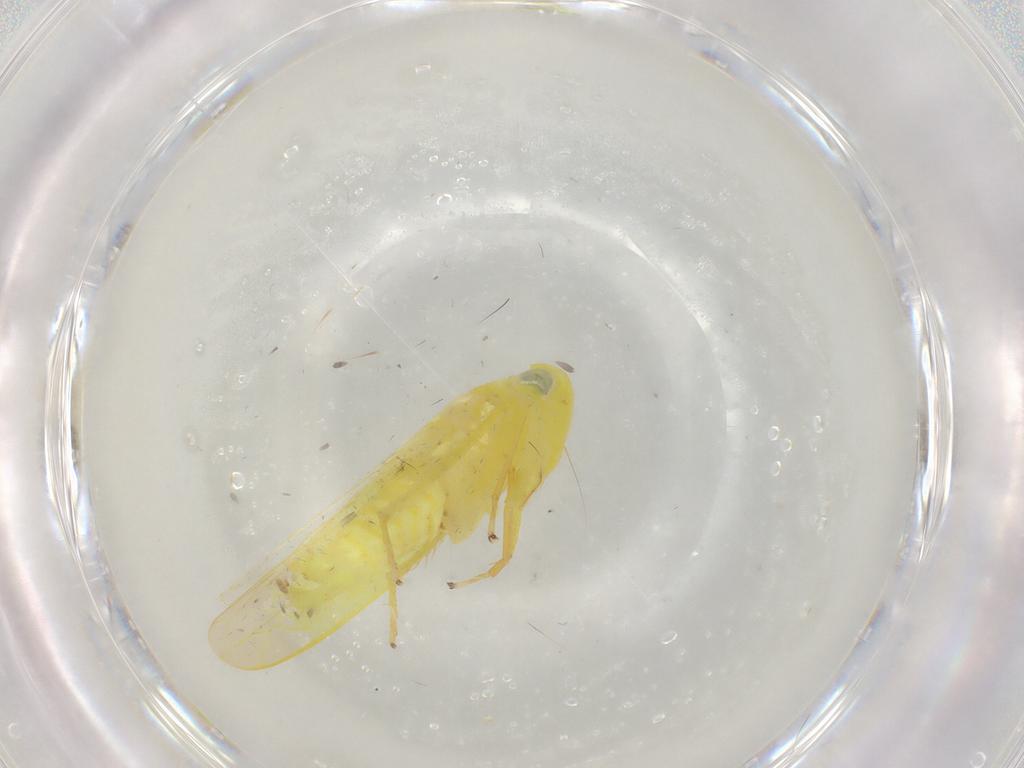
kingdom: Animalia
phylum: Arthropoda
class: Insecta
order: Hemiptera
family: Cicadellidae
